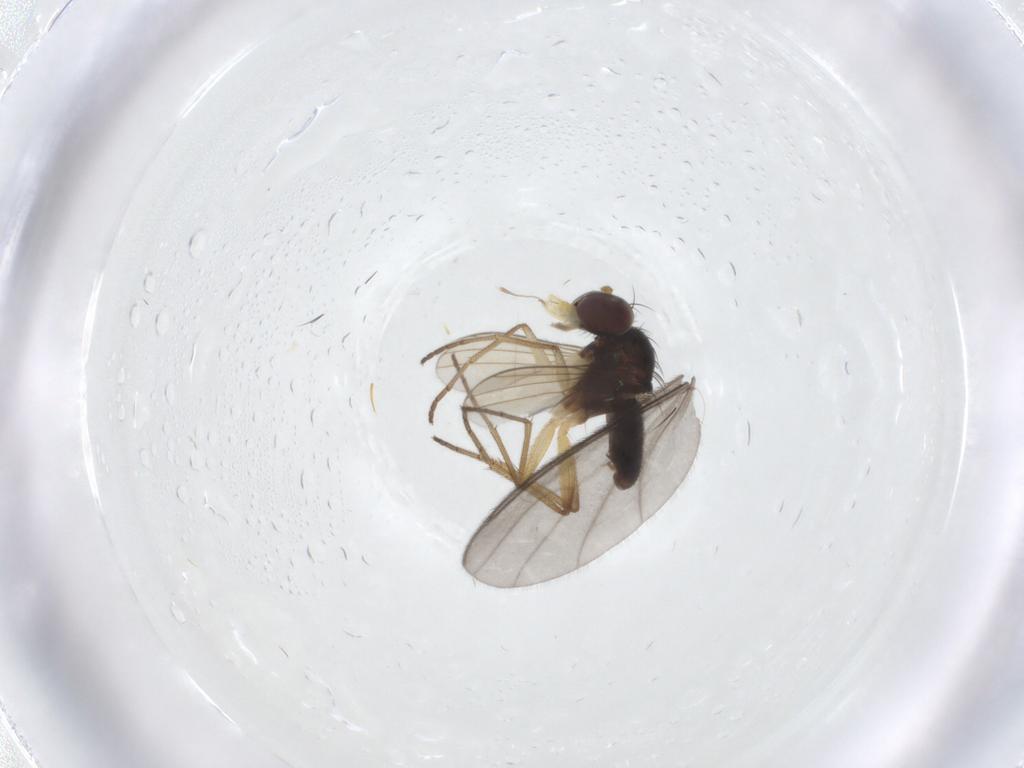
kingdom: Animalia
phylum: Arthropoda
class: Insecta
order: Diptera
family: Dolichopodidae
